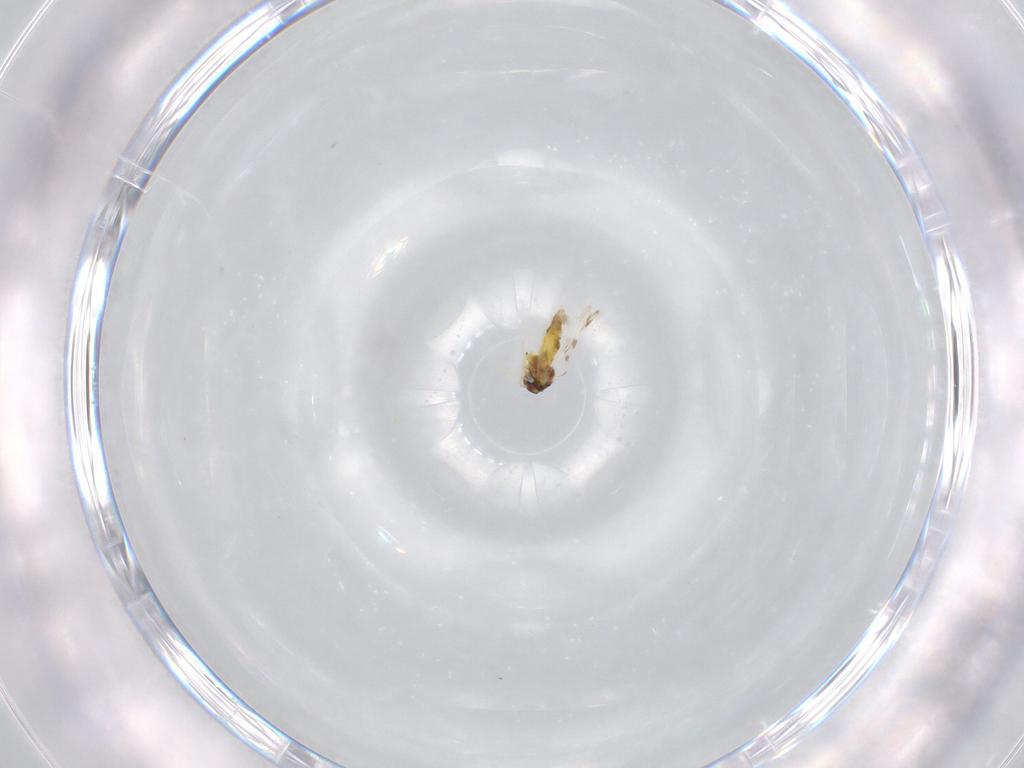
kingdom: Animalia
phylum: Arthropoda
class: Insecta
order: Hemiptera
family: Aleyrodidae
